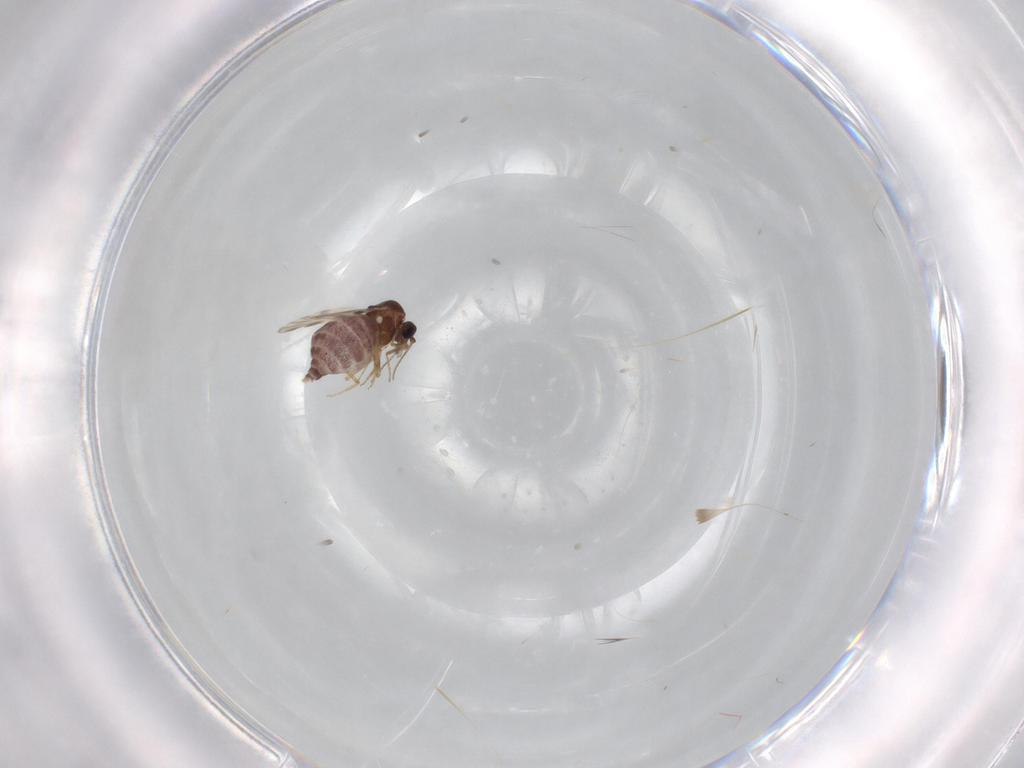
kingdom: Animalia
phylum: Arthropoda
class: Insecta
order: Diptera
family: Ceratopogonidae
